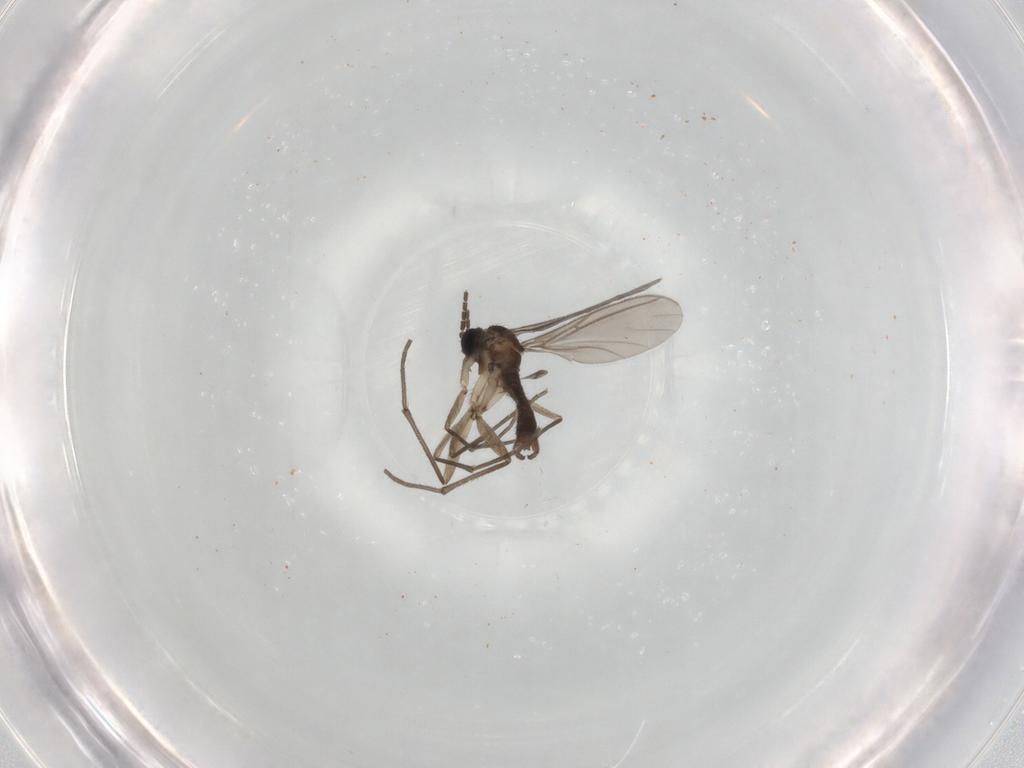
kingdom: Animalia
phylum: Arthropoda
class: Insecta
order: Diptera
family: Sciaridae
